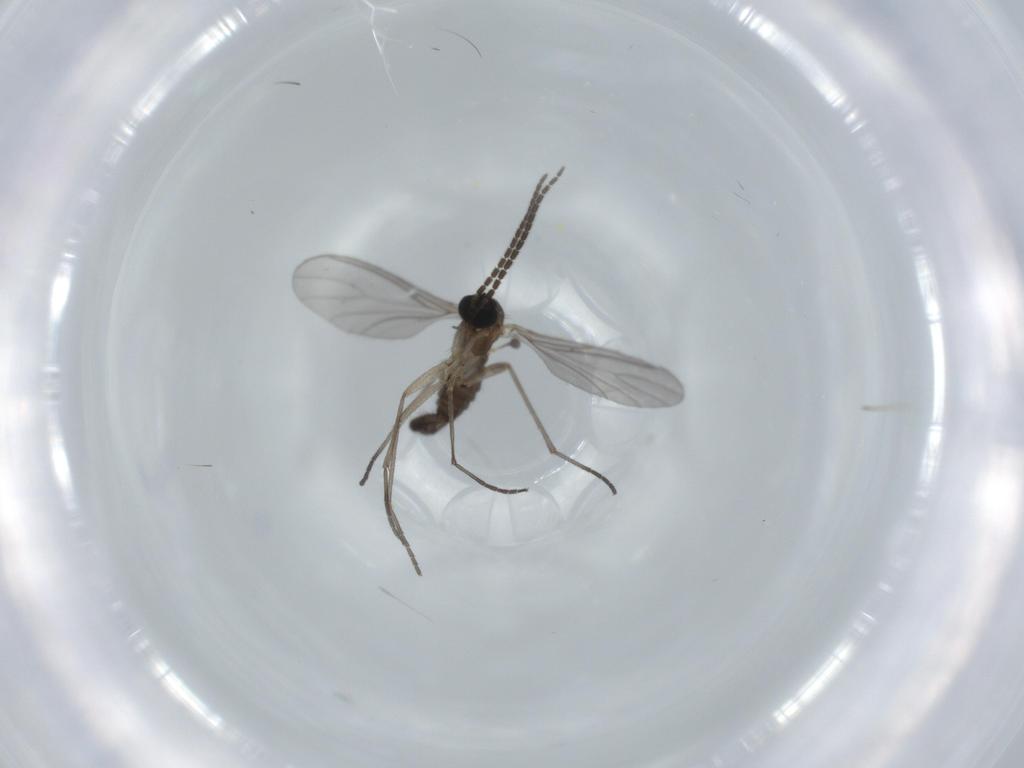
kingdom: Animalia
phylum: Arthropoda
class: Insecta
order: Diptera
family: Sciaridae
